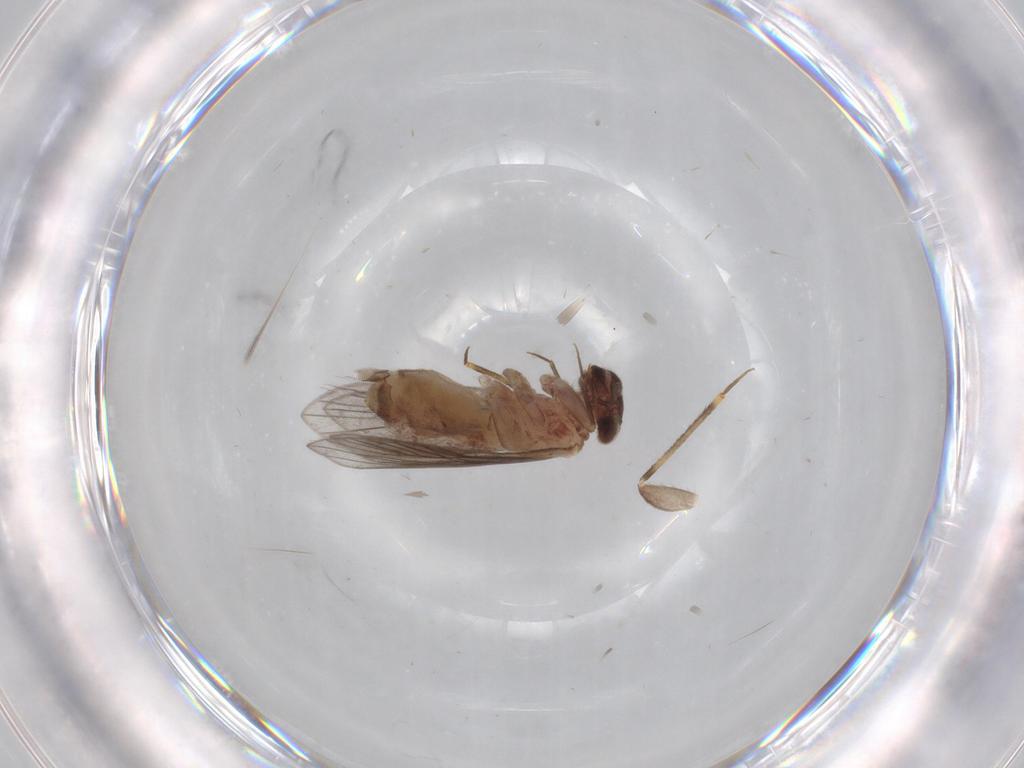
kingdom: Animalia
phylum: Arthropoda
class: Insecta
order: Psocodea
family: Lepidopsocidae
